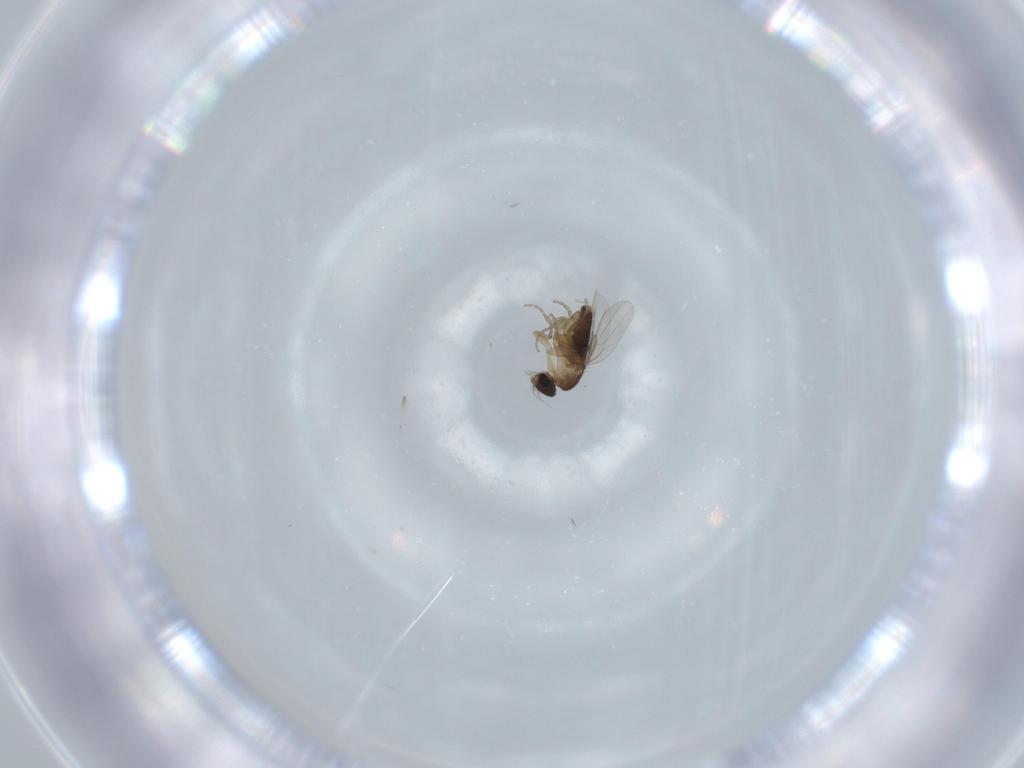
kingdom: Animalia
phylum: Arthropoda
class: Insecta
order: Diptera
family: Phoridae
